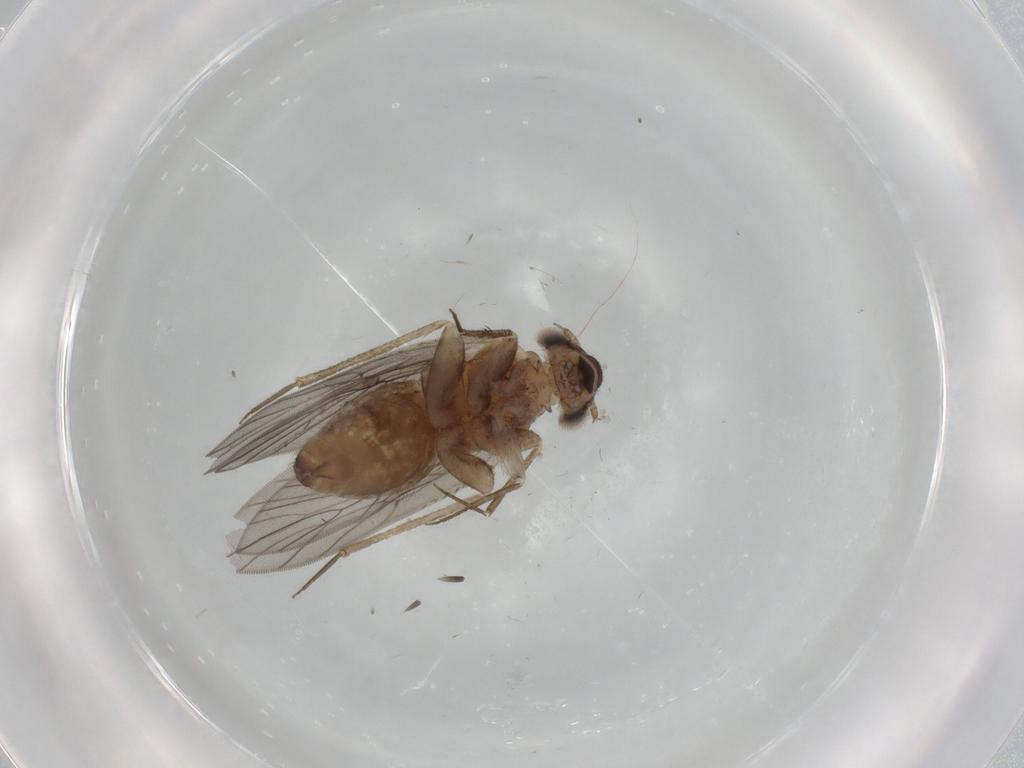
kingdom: Animalia
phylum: Arthropoda
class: Insecta
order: Psocodea
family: Lepidopsocidae
